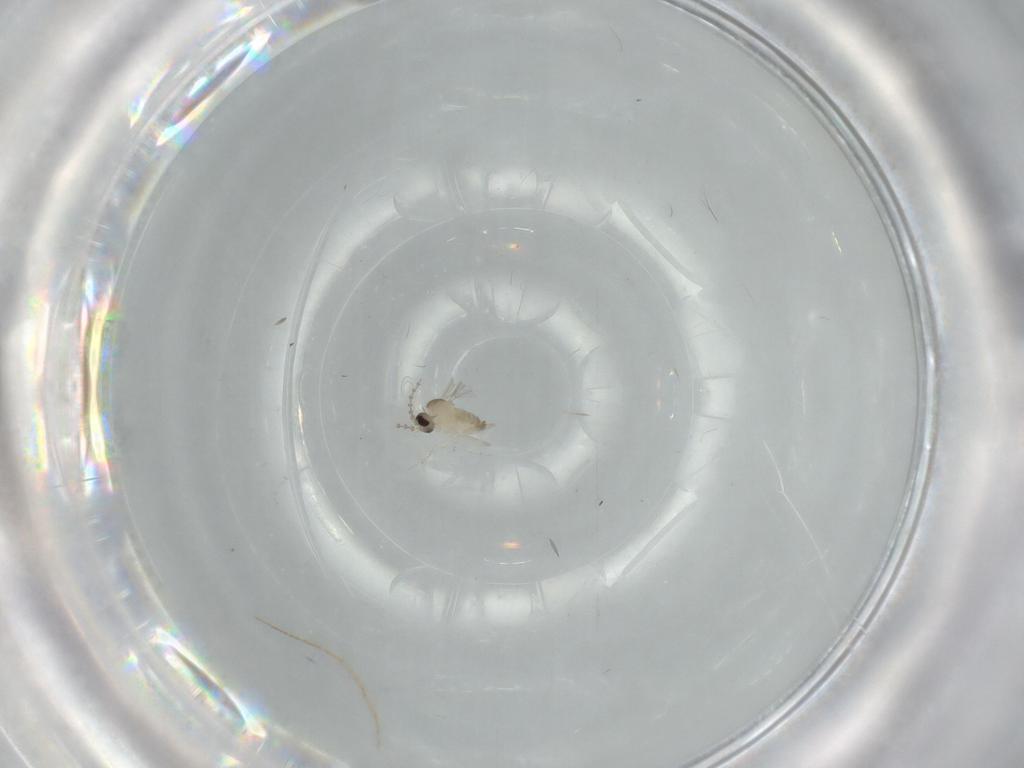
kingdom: Animalia
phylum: Arthropoda
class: Insecta
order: Diptera
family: Cecidomyiidae
